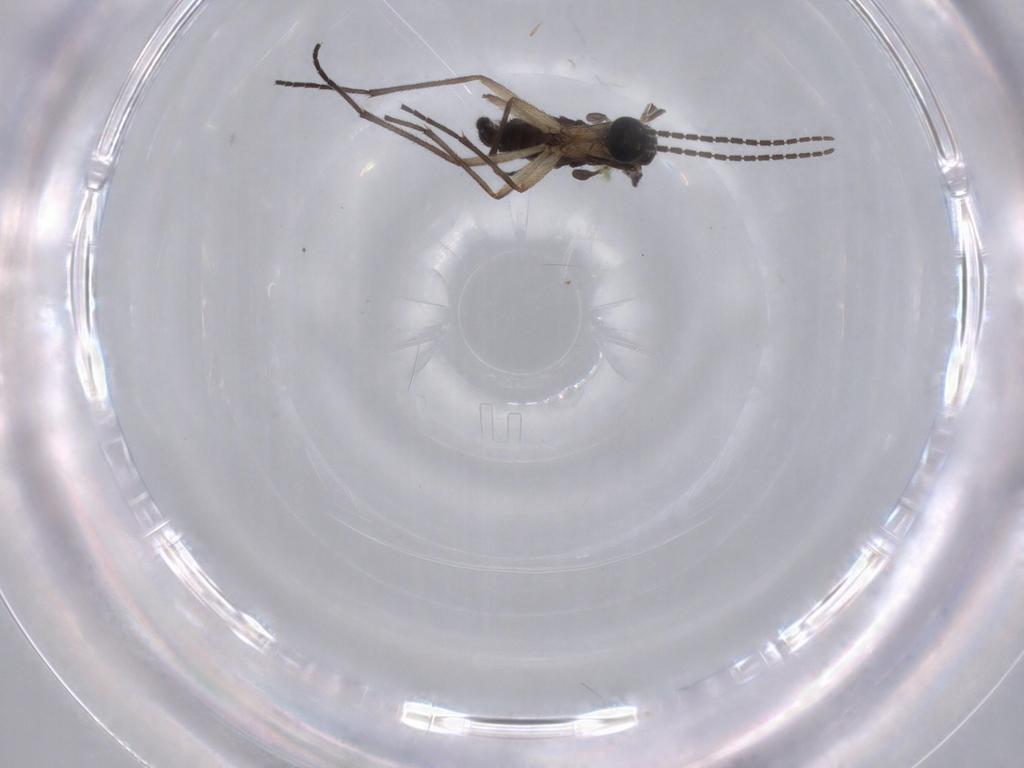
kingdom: Animalia
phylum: Arthropoda
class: Insecta
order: Diptera
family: Sciaridae
